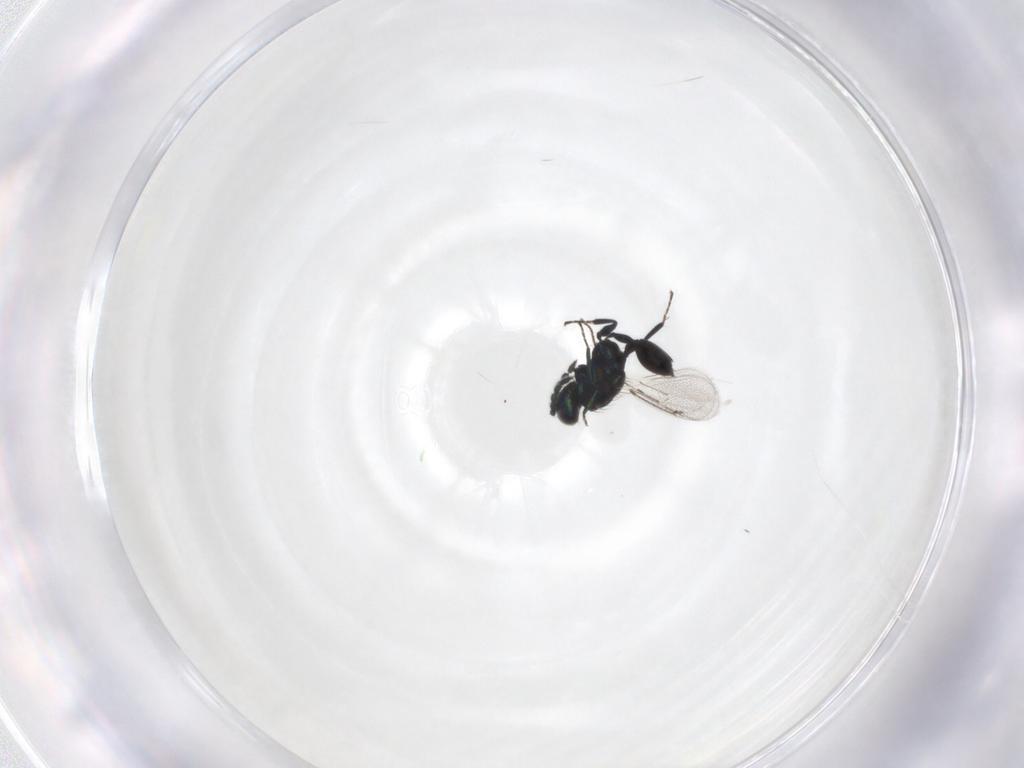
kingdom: Animalia
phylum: Arthropoda
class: Insecta
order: Hymenoptera
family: Eulophidae
